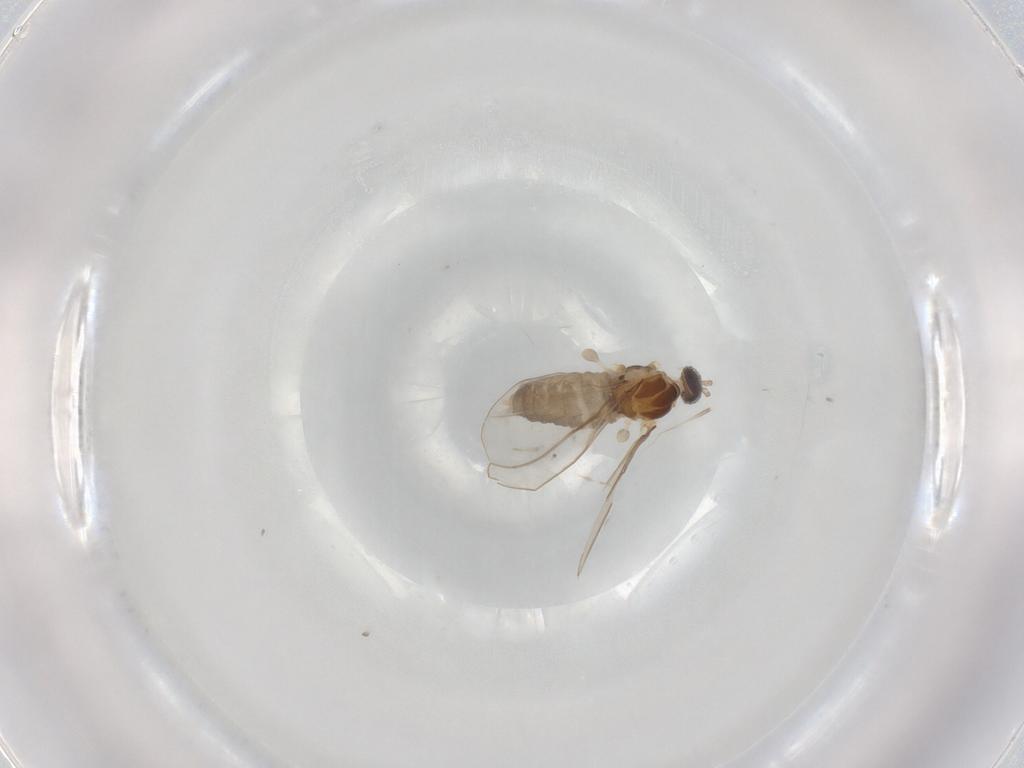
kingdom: Animalia
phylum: Arthropoda
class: Insecta
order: Diptera
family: Cecidomyiidae
